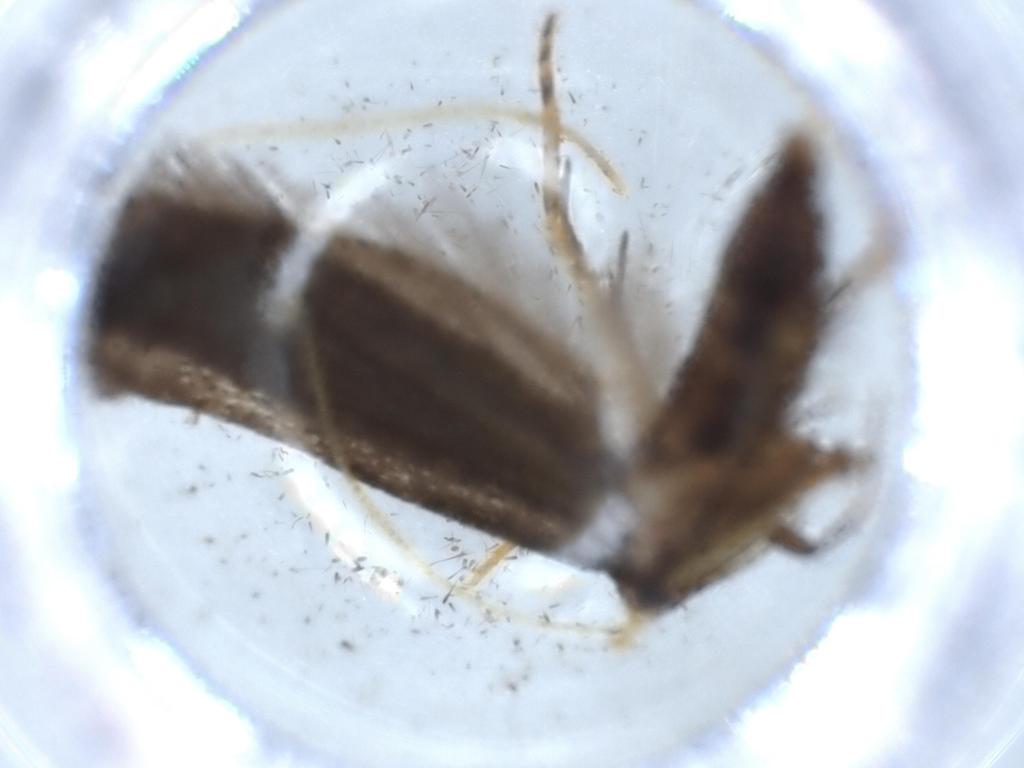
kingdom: Animalia
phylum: Arthropoda
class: Insecta
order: Lepidoptera
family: Lecithoceridae
